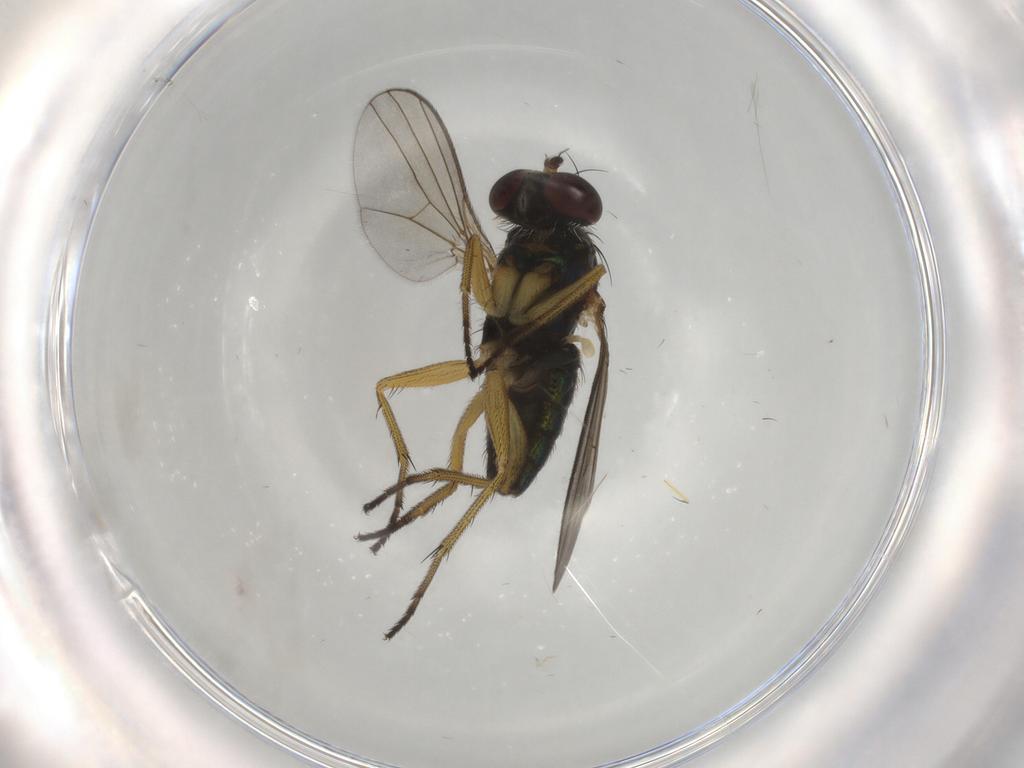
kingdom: Animalia
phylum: Arthropoda
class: Insecta
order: Diptera
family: Dolichopodidae
